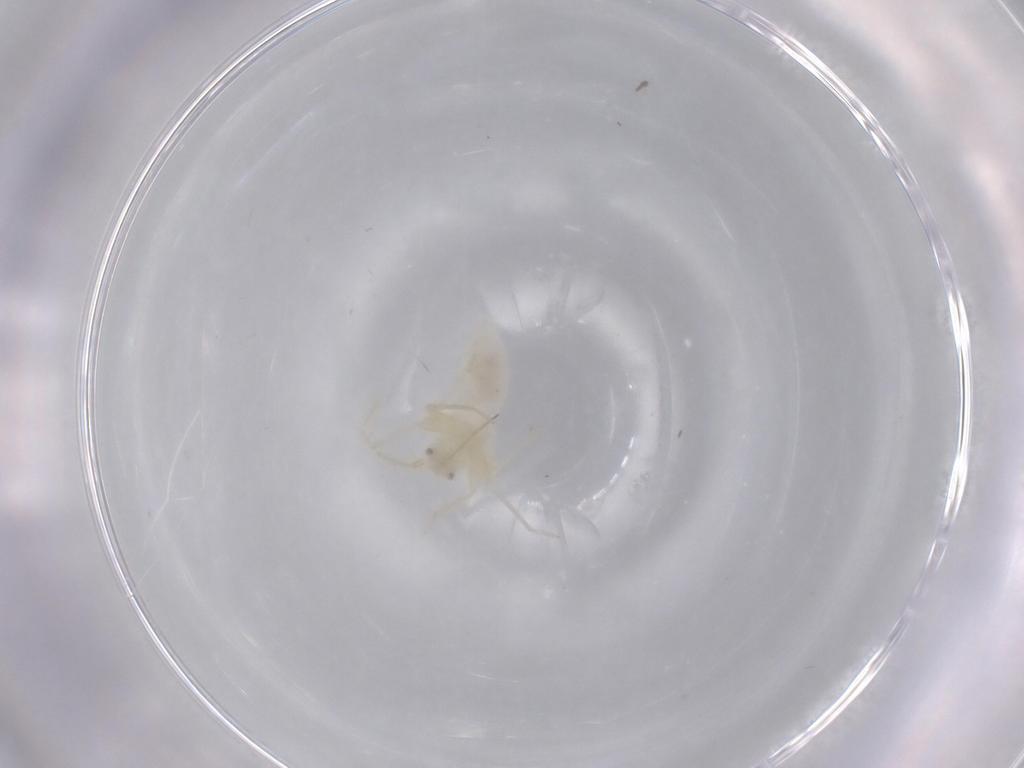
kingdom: Animalia
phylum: Arthropoda
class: Insecta
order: Hemiptera
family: Miridae
